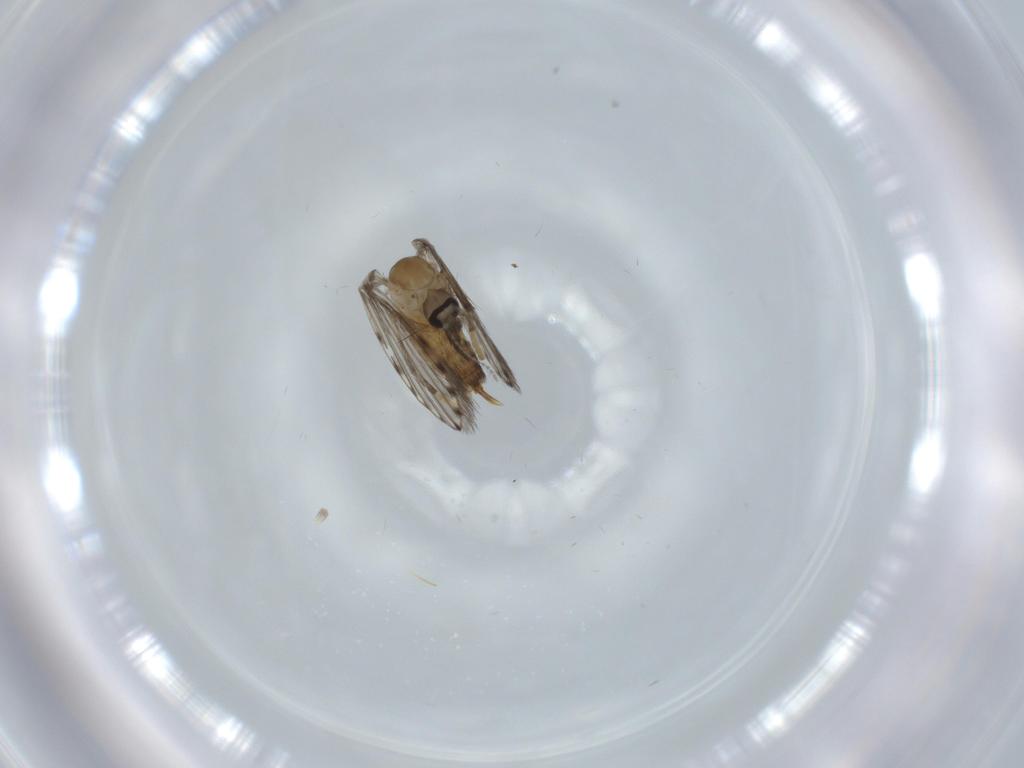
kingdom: Animalia
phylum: Arthropoda
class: Insecta
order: Diptera
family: Psychodidae
